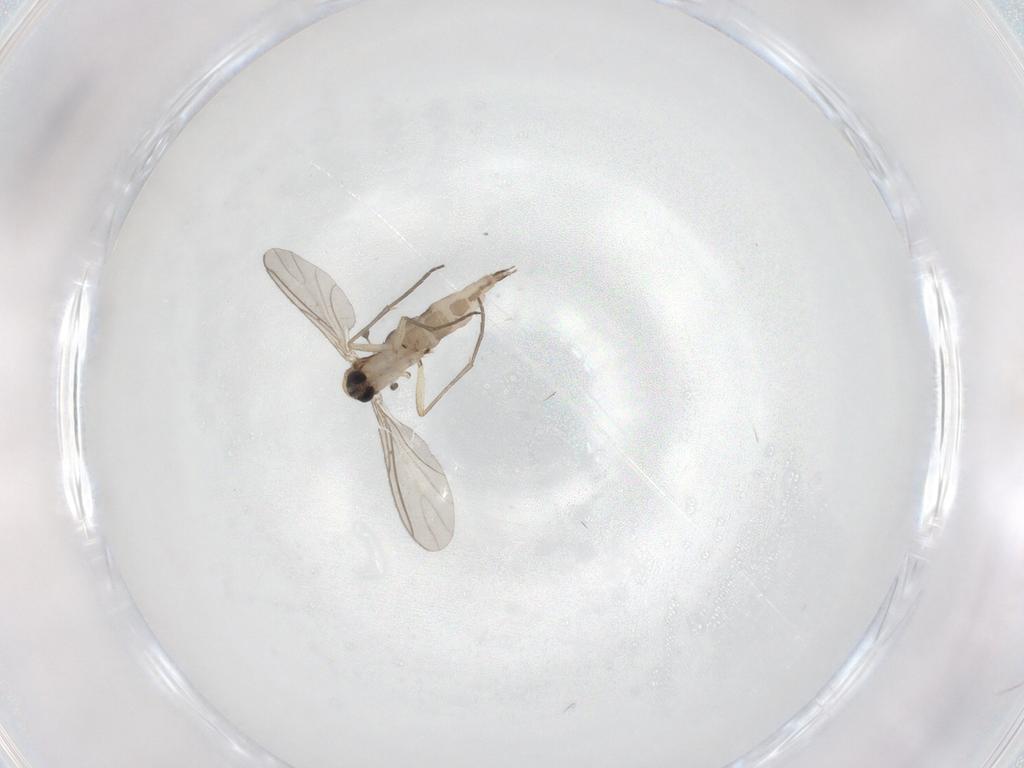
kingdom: Animalia
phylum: Arthropoda
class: Insecta
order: Diptera
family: Sciaridae
